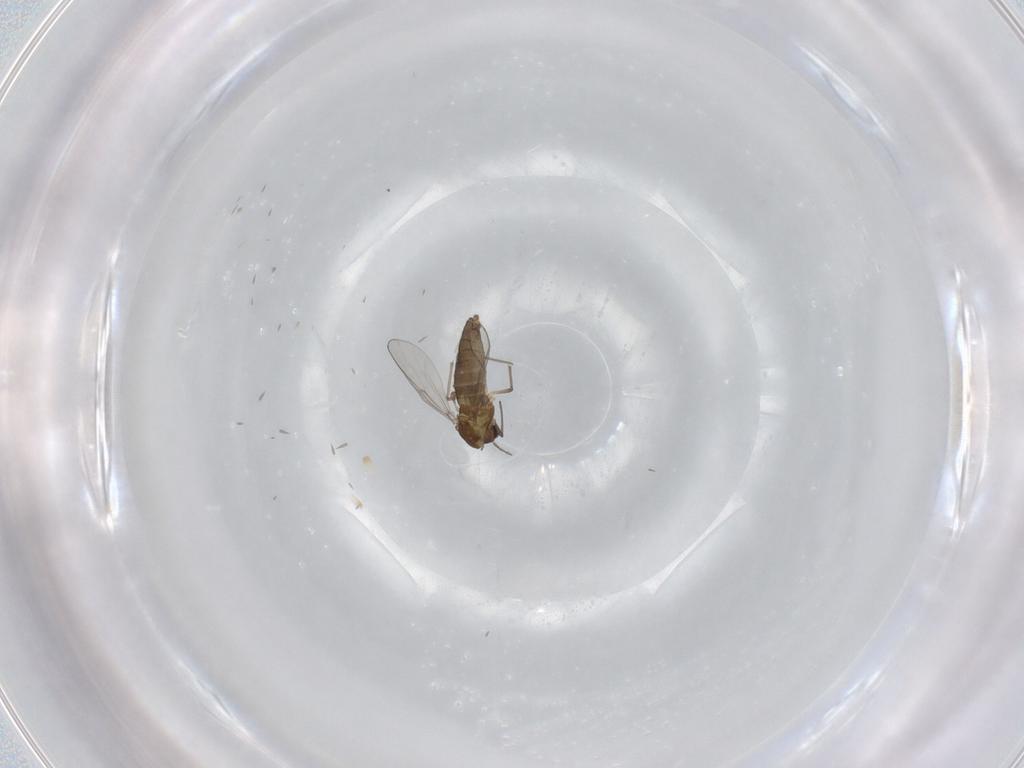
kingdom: Animalia
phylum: Arthropoda
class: Insecta
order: Diptera
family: Chironomidae
